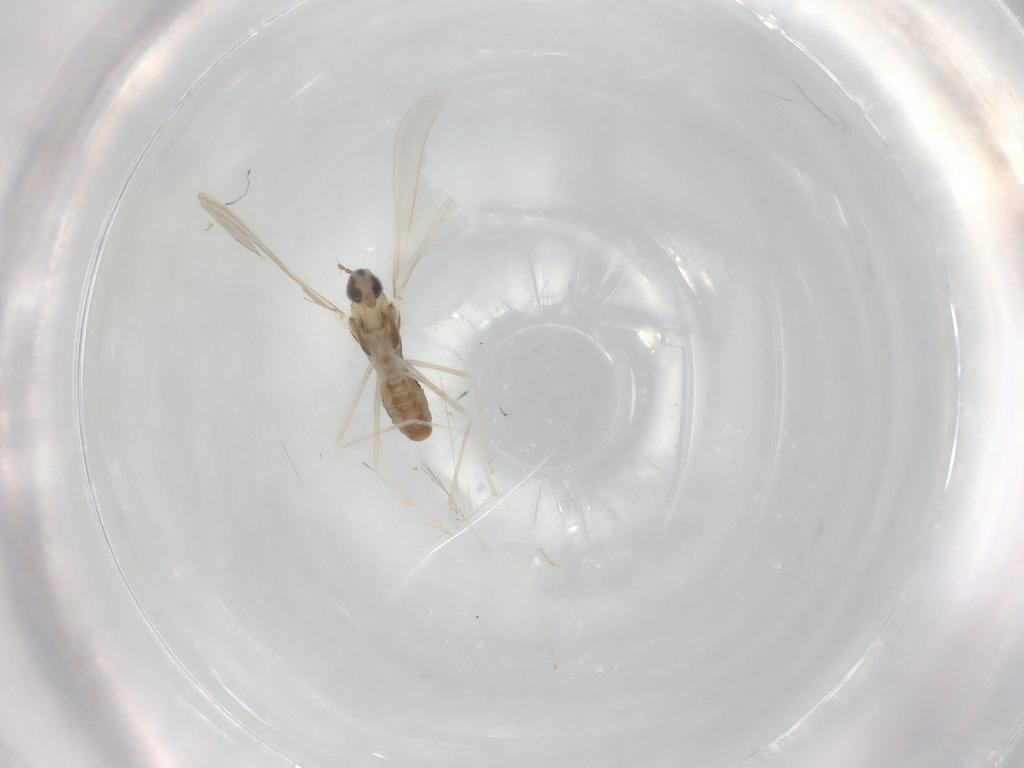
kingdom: Animalia
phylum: Arthropoda
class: Insecta
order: Diptera
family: Cecidomyiidae
